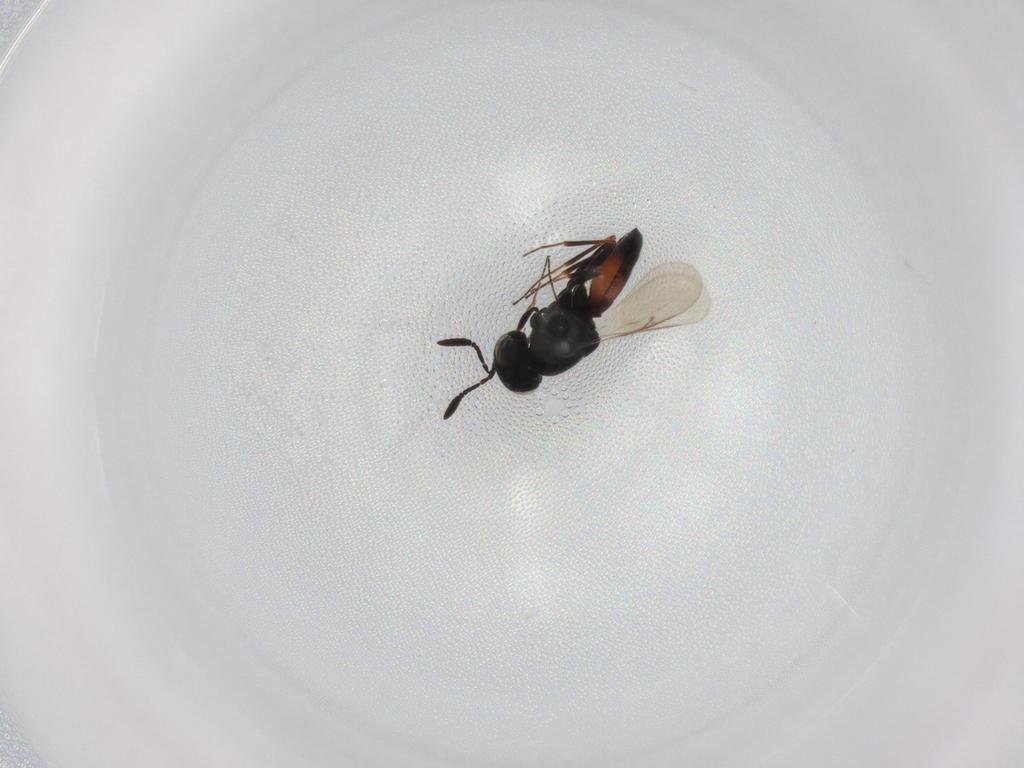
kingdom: Animalia
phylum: Arthropoda
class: Insecta
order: Hymenoptera
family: Scelionidae
